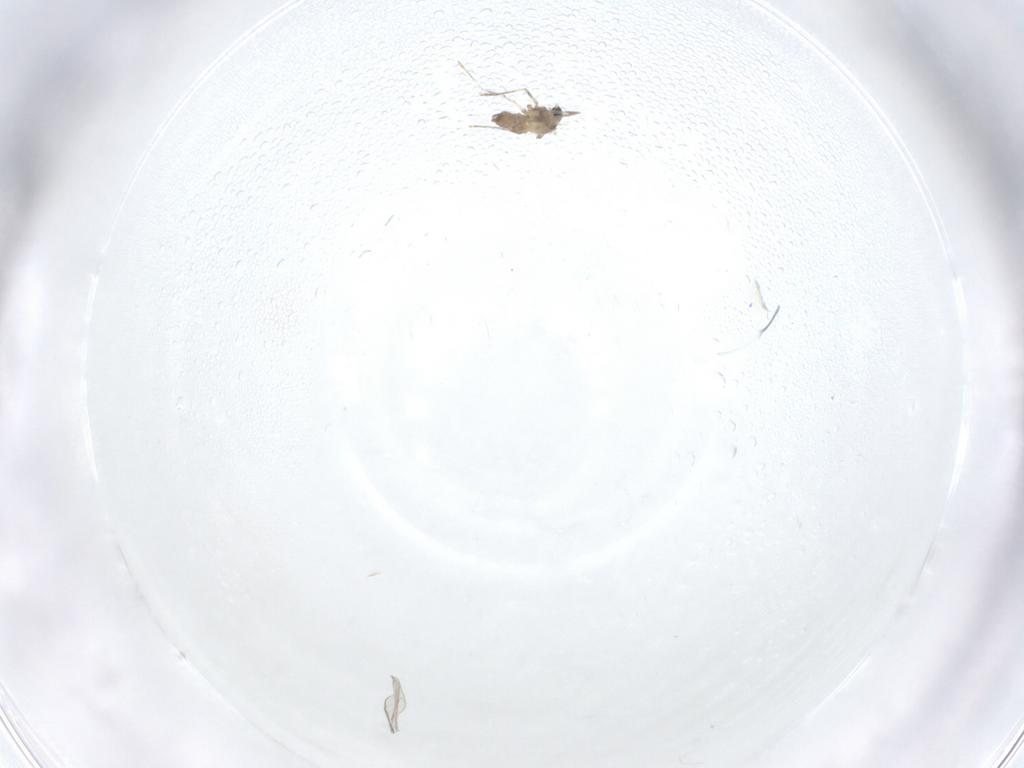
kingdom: Animalia
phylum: Arthropoda
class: Insecta
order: Diptera
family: Cecidomyiidae
